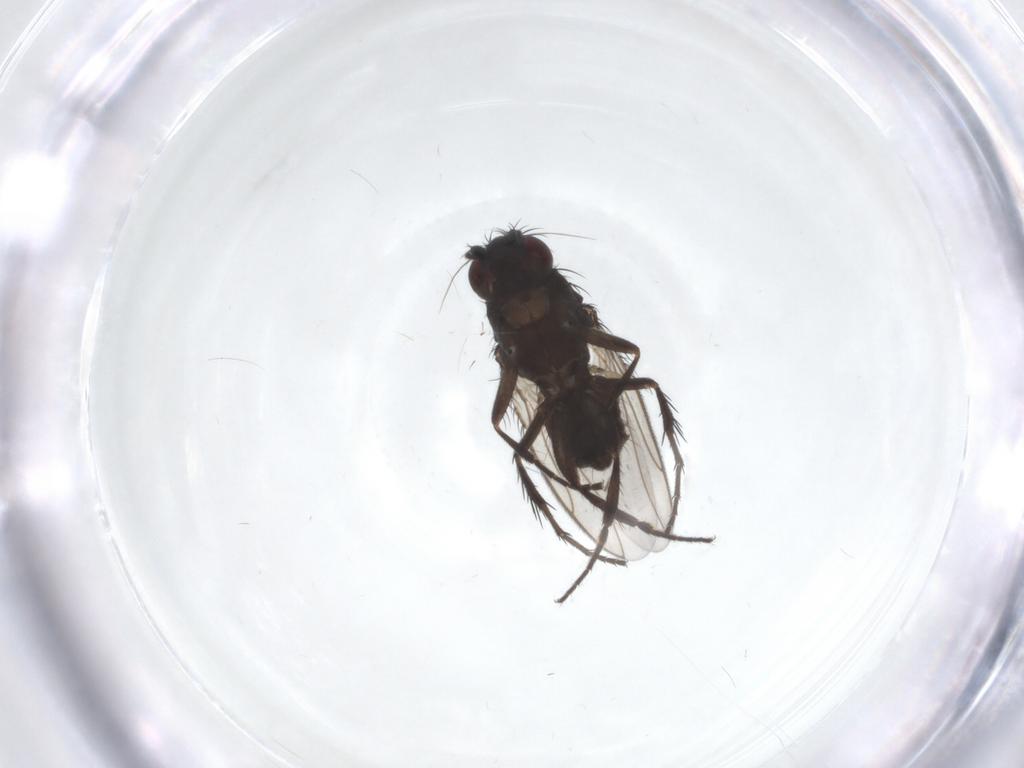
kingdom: Animalia
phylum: Arthropoda
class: Insecta
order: Diptera
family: Sphaeroceridae
